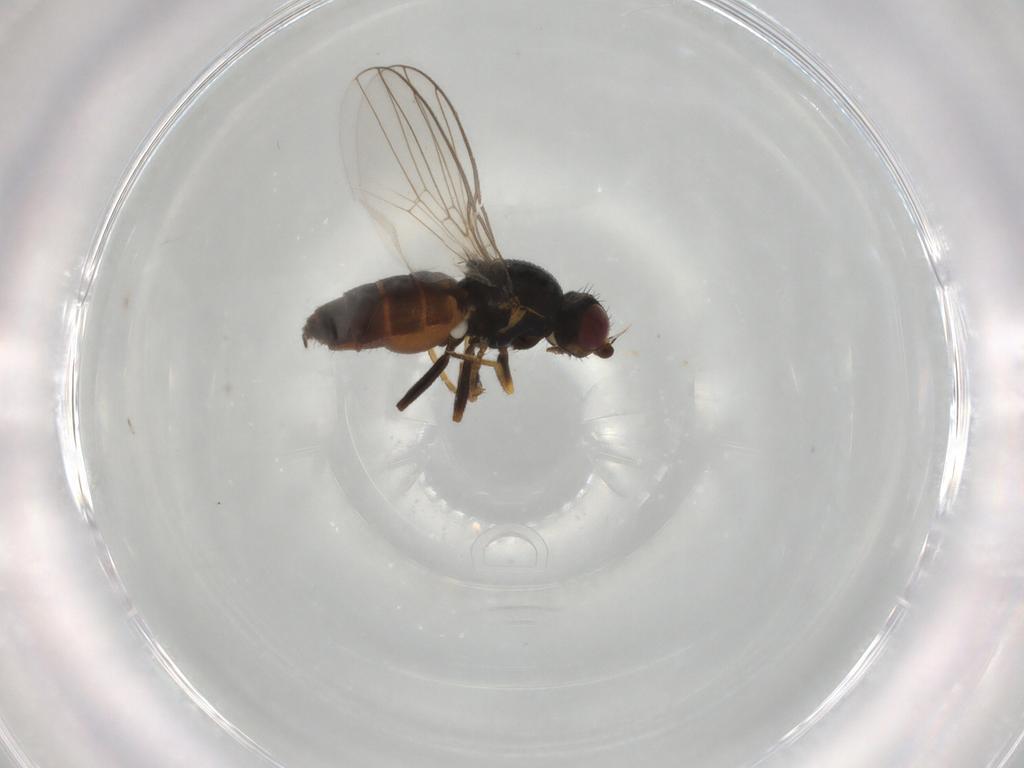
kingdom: Animalia
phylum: Arthropoda
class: Insecta
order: Diptera
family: Chloropidae
